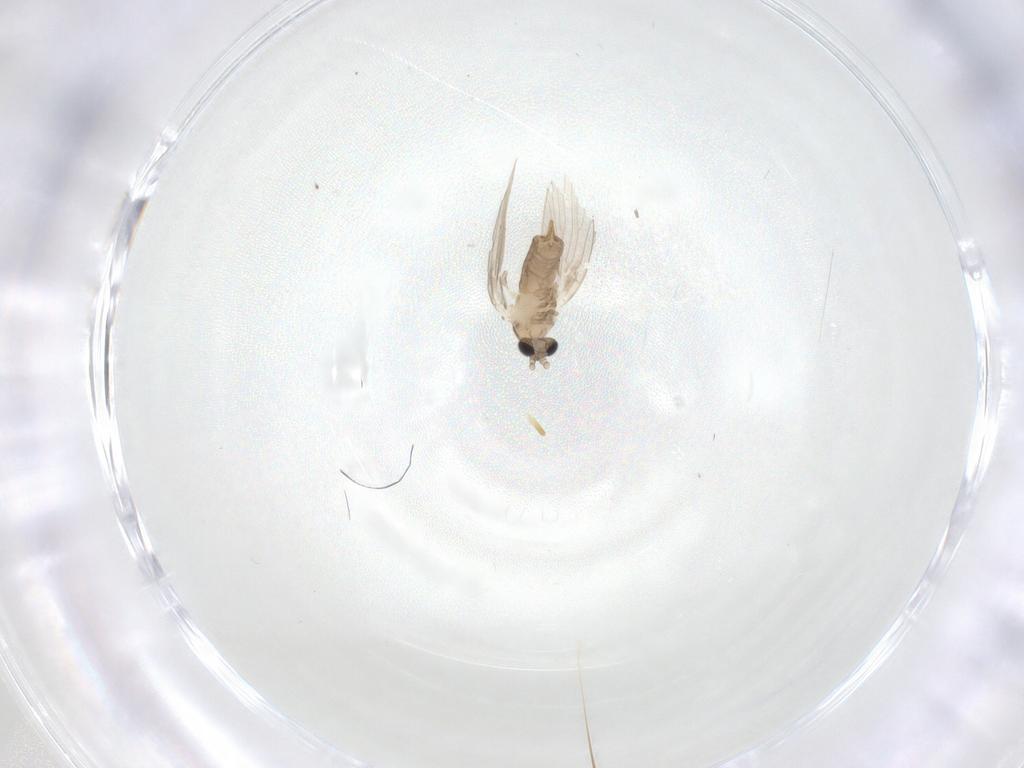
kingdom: Animalia
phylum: Arthropoda
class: Insecta
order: Diptera
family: Psychodidae
